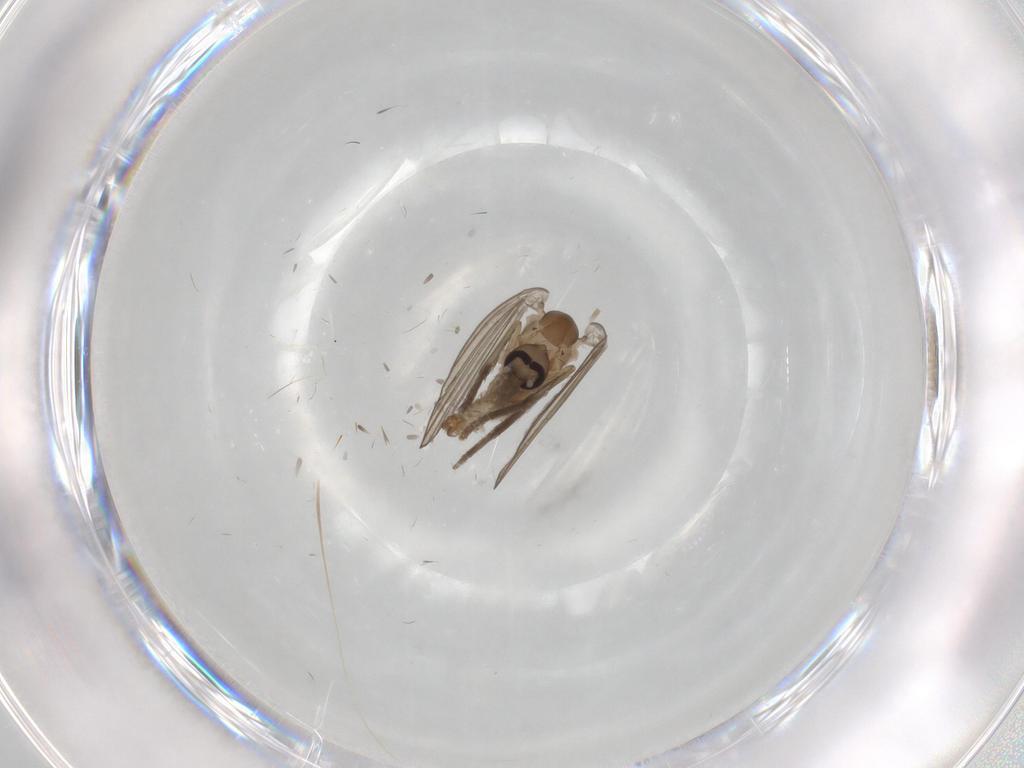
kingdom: Animalia
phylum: Arthropoda
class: Insecta
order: Diptera
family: Psychodidae
